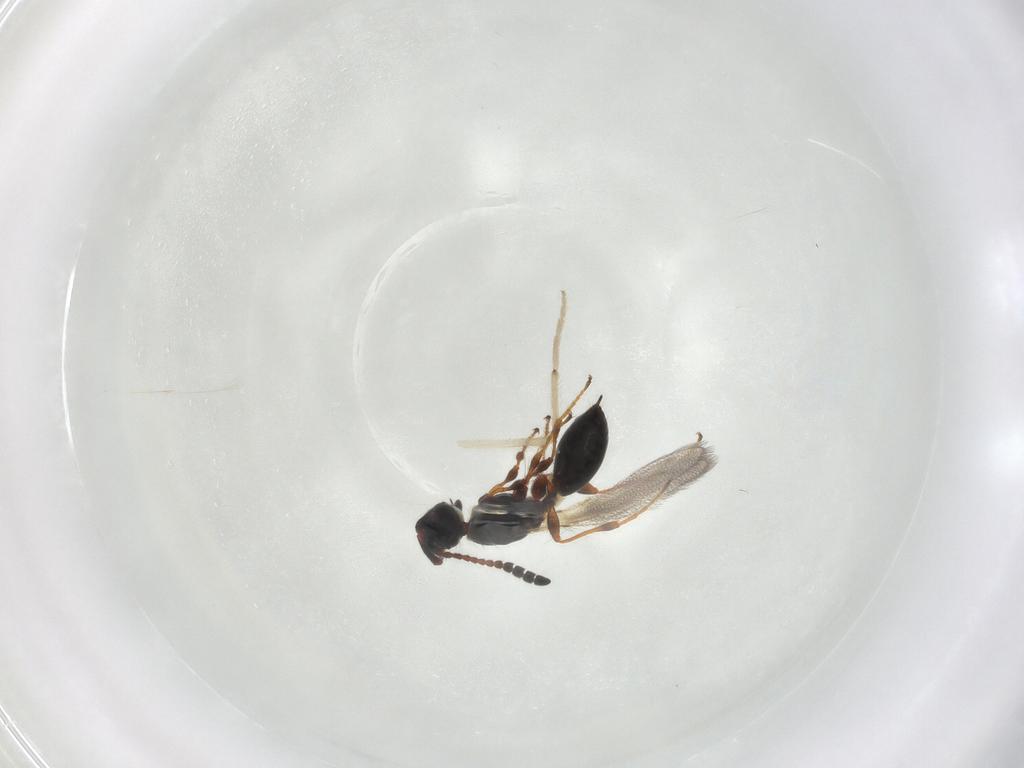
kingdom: Animalia
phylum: Arthropoda
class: Insecta
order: Hymenoptera
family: Diapriidae
